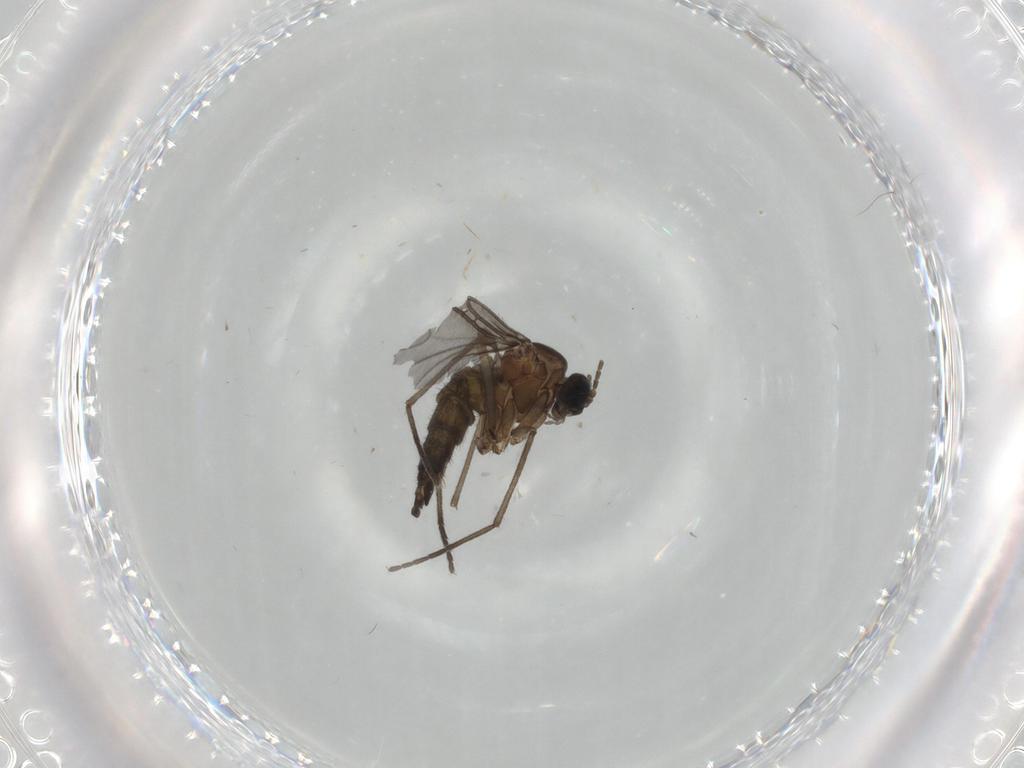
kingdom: Animalia
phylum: Arthropoda
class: Insecta
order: Diptera
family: Sciaridae
